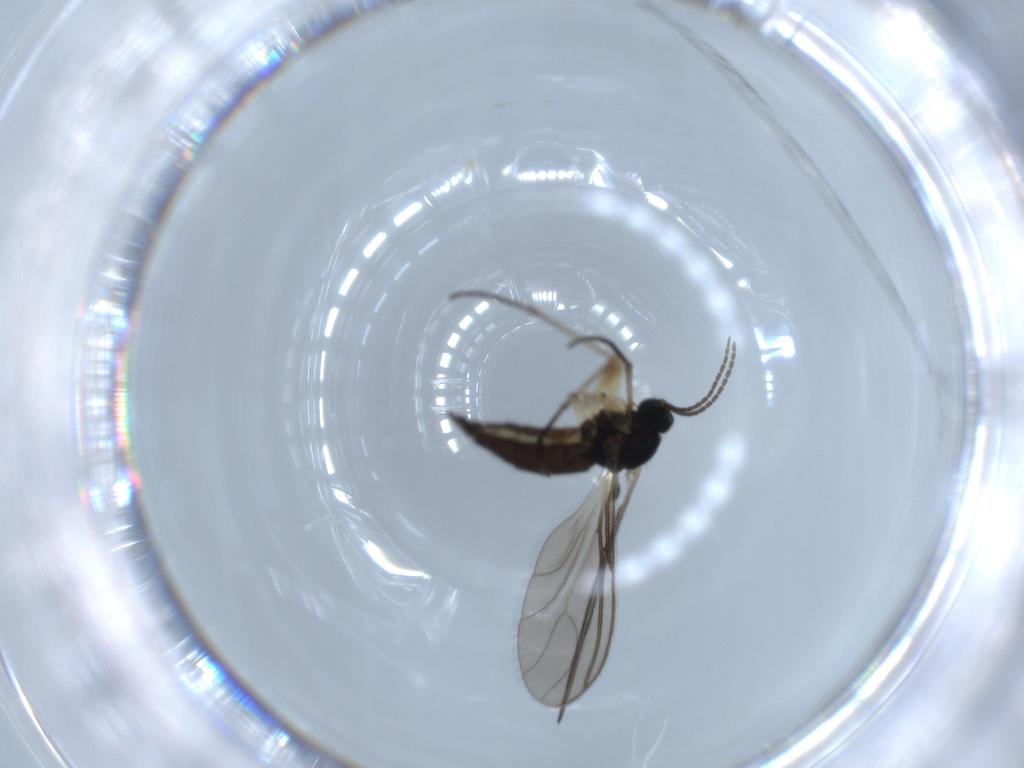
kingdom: Animalia
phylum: Arthropoda
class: Insecta
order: Diptera
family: Sciaridae
